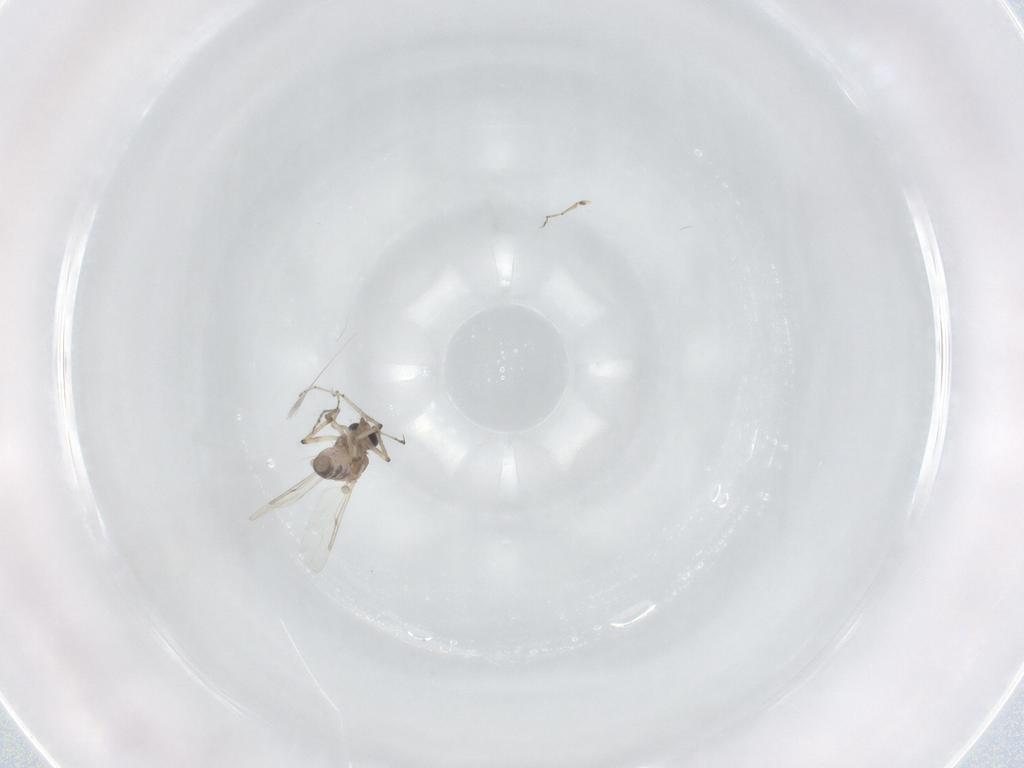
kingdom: Animalia
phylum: Arthropoda
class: Insecta
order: Diptera
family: Ceratopogonidae
